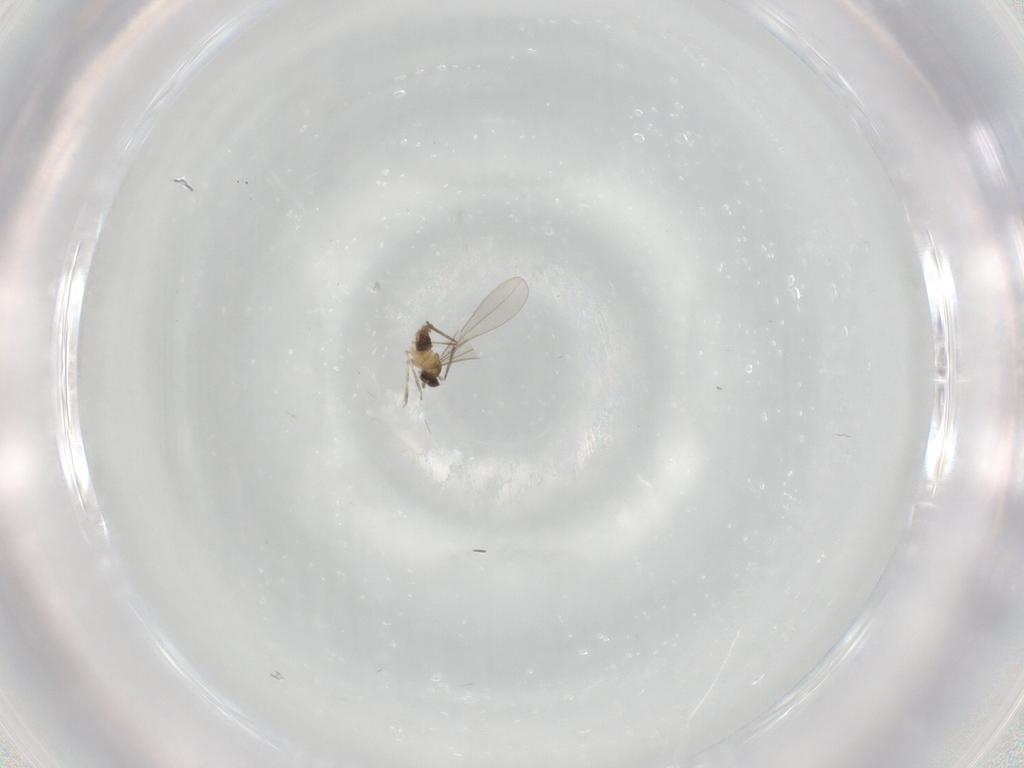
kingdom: Animalia
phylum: Arthropoda
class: Insecta
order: Diptera
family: Cecidomyiidae
